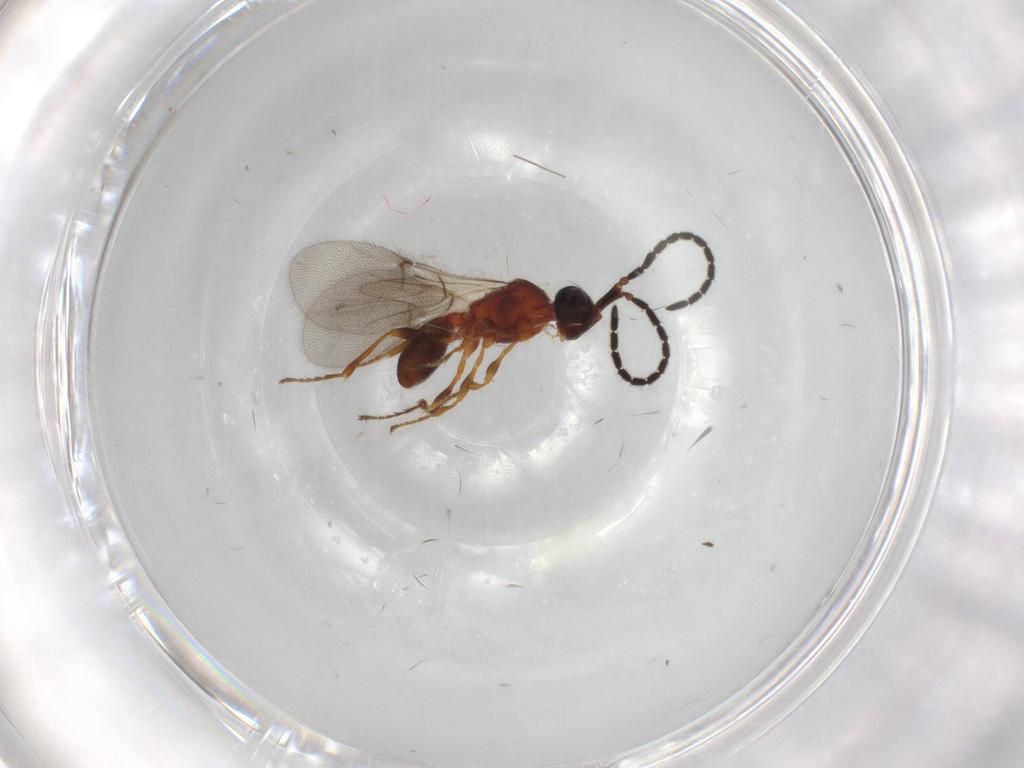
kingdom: Animalia
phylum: Arthropoda
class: Insecta
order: Hymenoptera
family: Diapriidae
